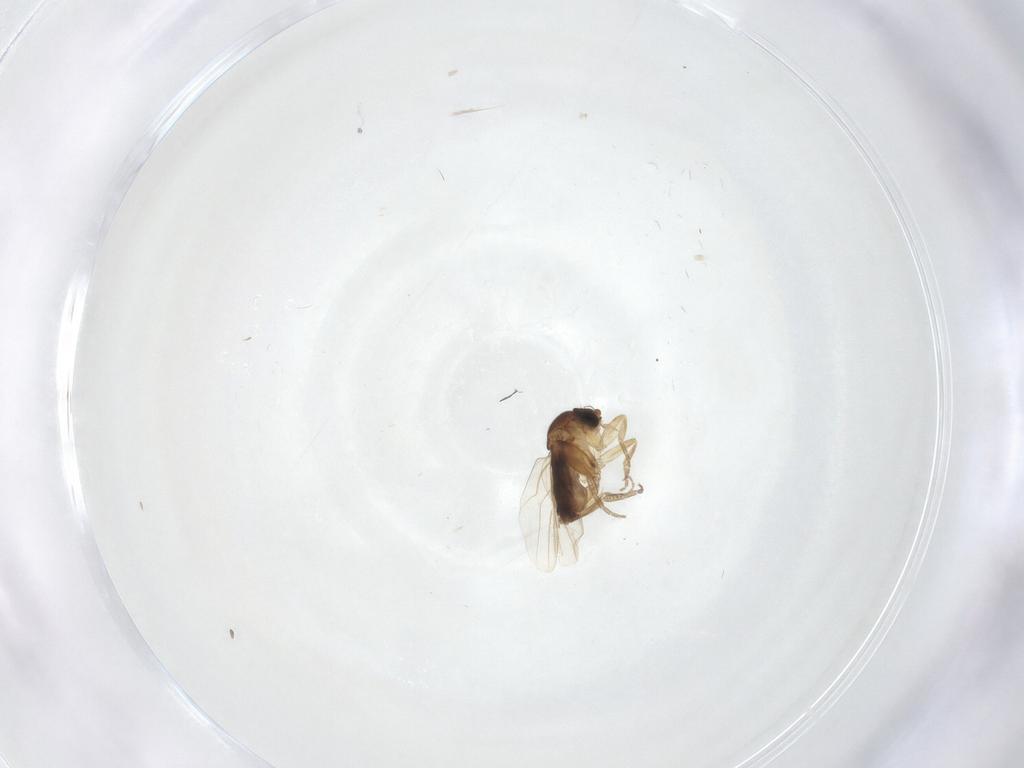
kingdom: Animalia
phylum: Arthropoda
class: Insecta
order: Diptera
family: Phoridae
